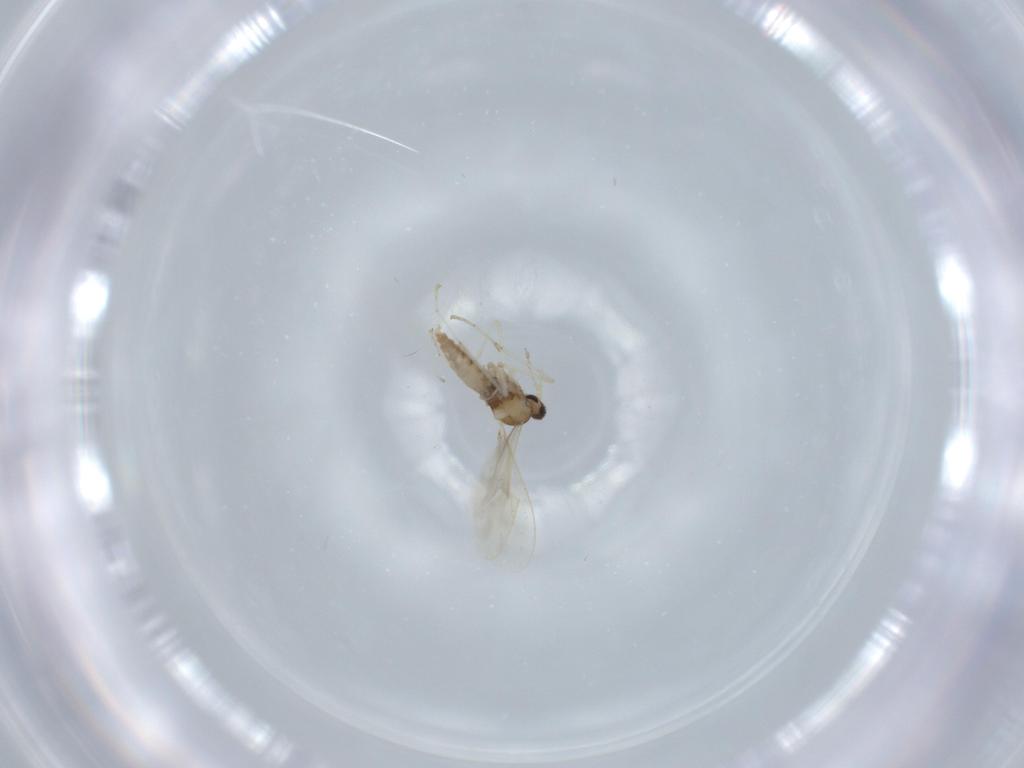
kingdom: Animalia
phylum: Arthropoda
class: Insecta
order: Diptera
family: Cecidomyiidae
